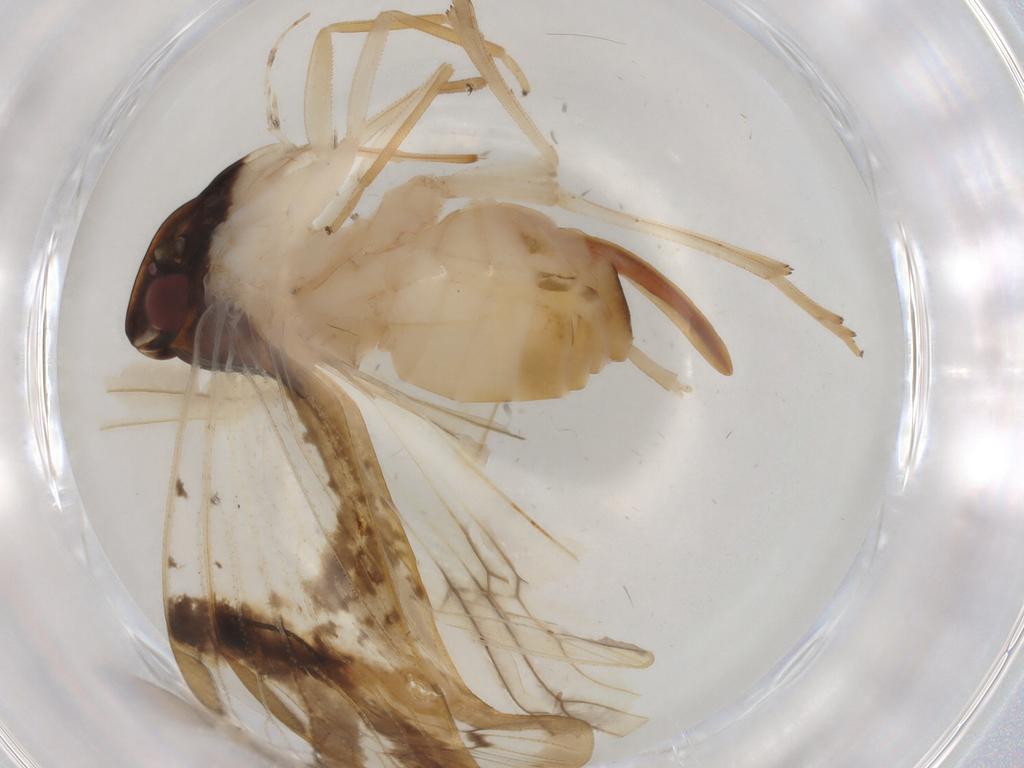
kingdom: Animalia
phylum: Arthropoda
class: Insecta
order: Hemiptera
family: Cixiidae
